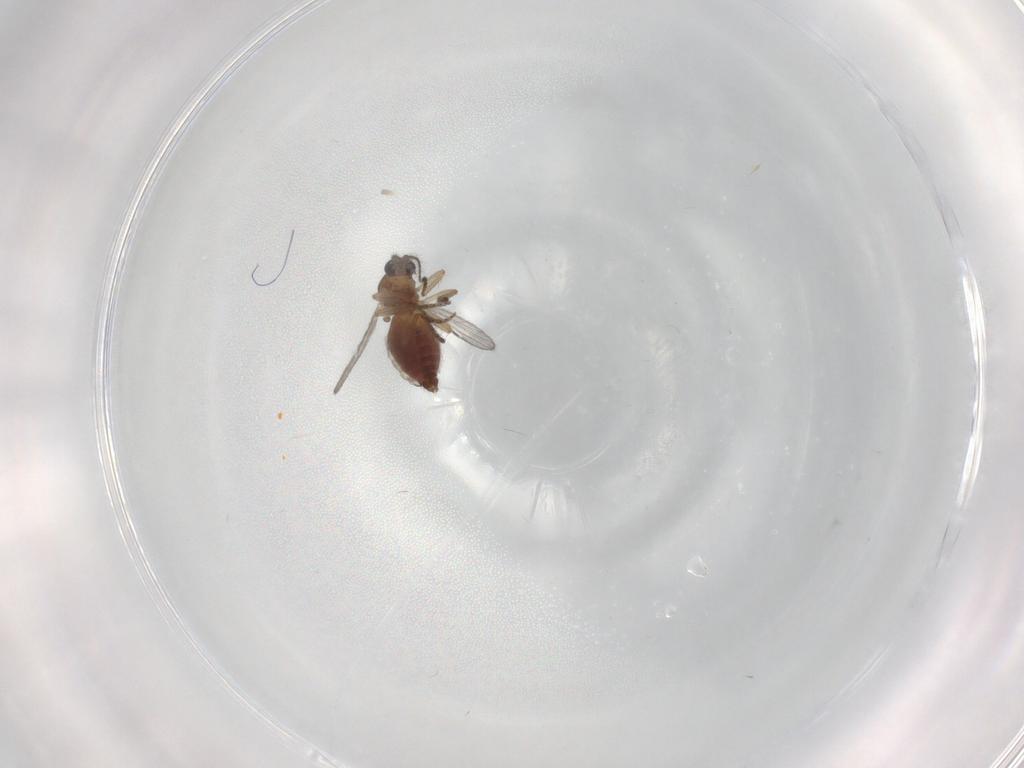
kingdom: Animalia
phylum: Arthropoda
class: Insecta
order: Diptera
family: Ceratopogonidae
